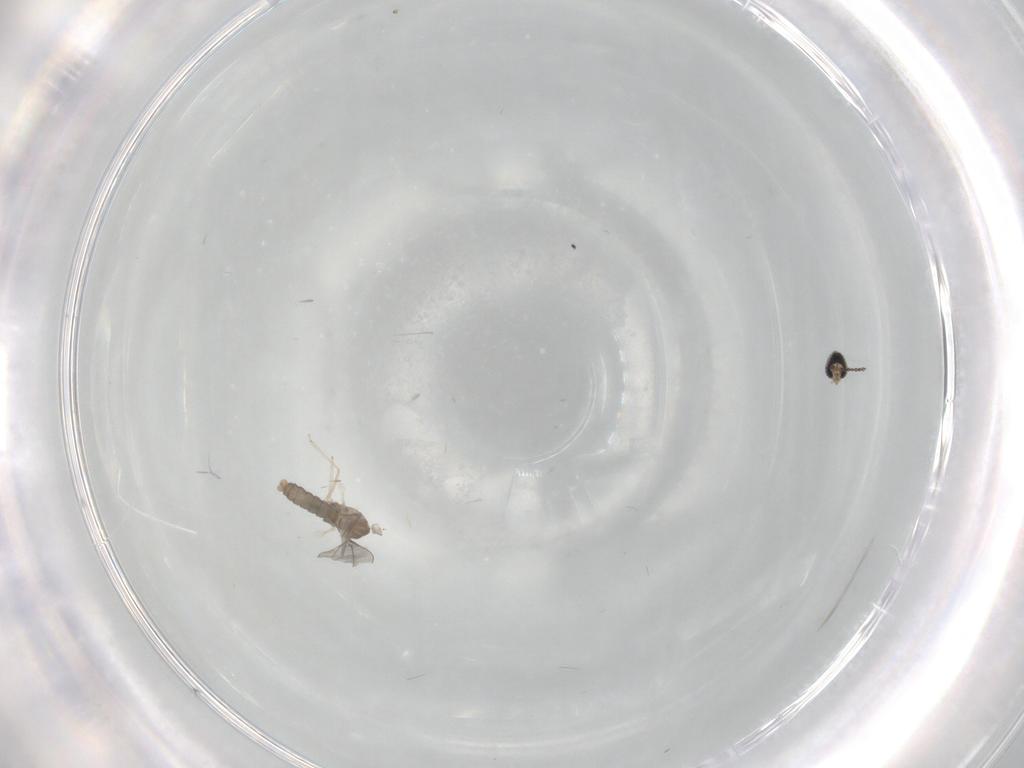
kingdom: Animalia
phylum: Arthropoda
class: Insecta
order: Diptera
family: Cecidomyiidae
